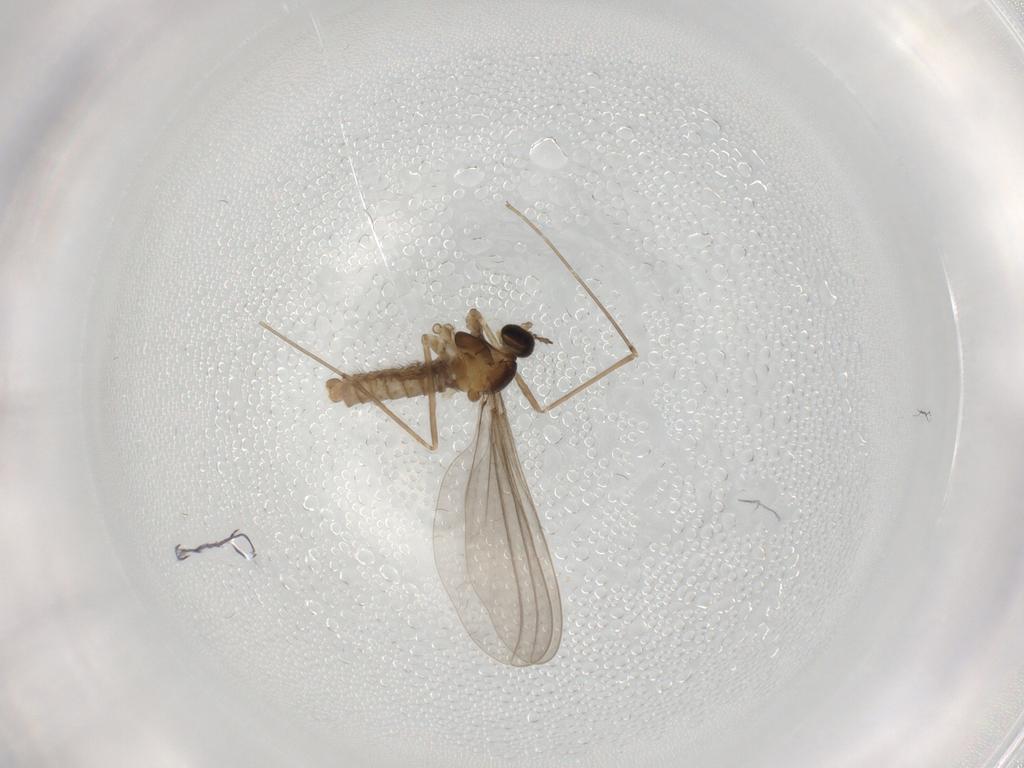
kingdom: Animalia
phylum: Arthropoda
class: Insecta
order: Diptera
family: Cecidomyiidae
